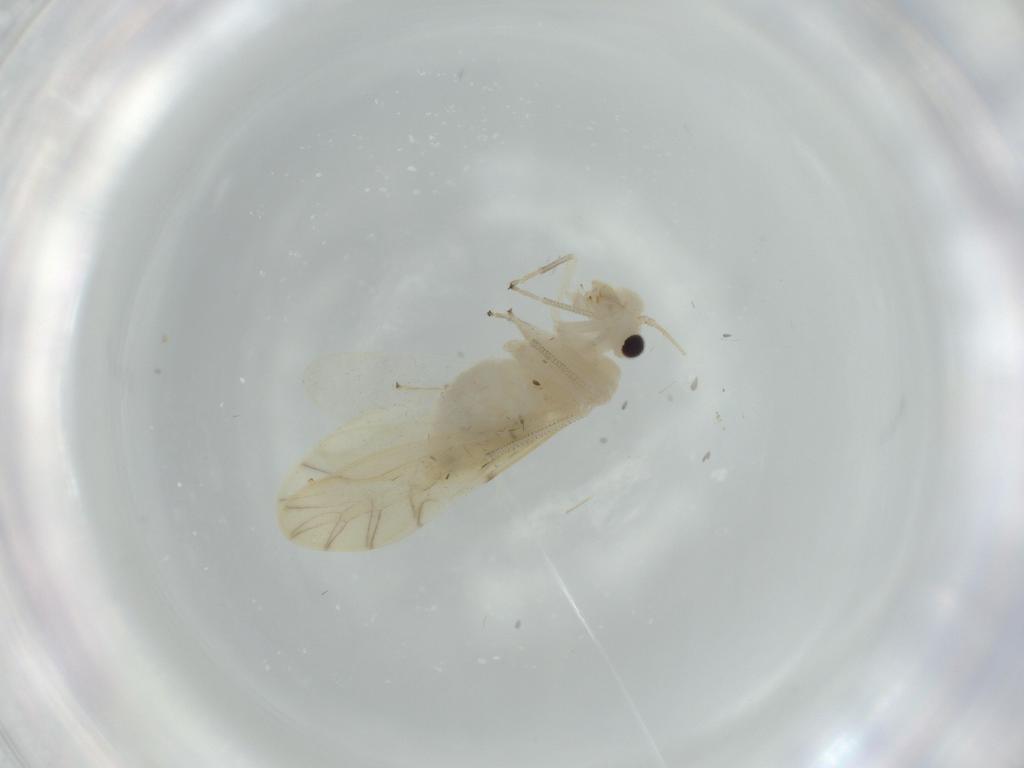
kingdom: Animalia
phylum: Arthropoda
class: Insecta
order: Psocodea
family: Caeciliusidae
